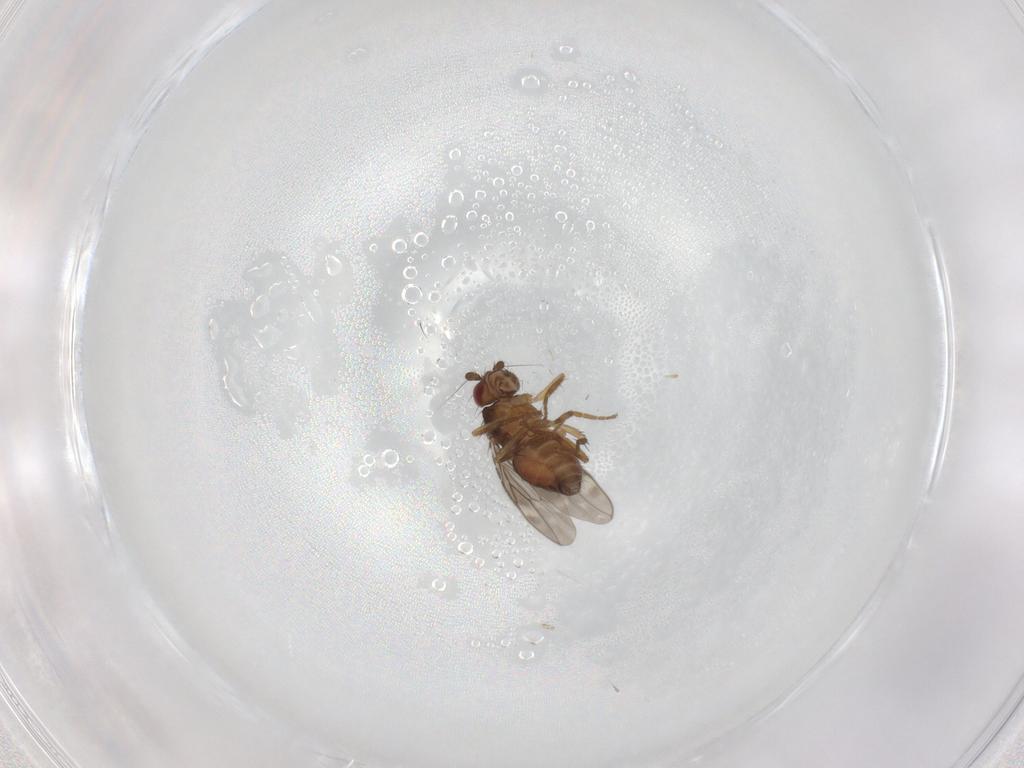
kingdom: Animalia
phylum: Arthropoda
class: Insecta
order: Diptera
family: Sphaeroceridae
